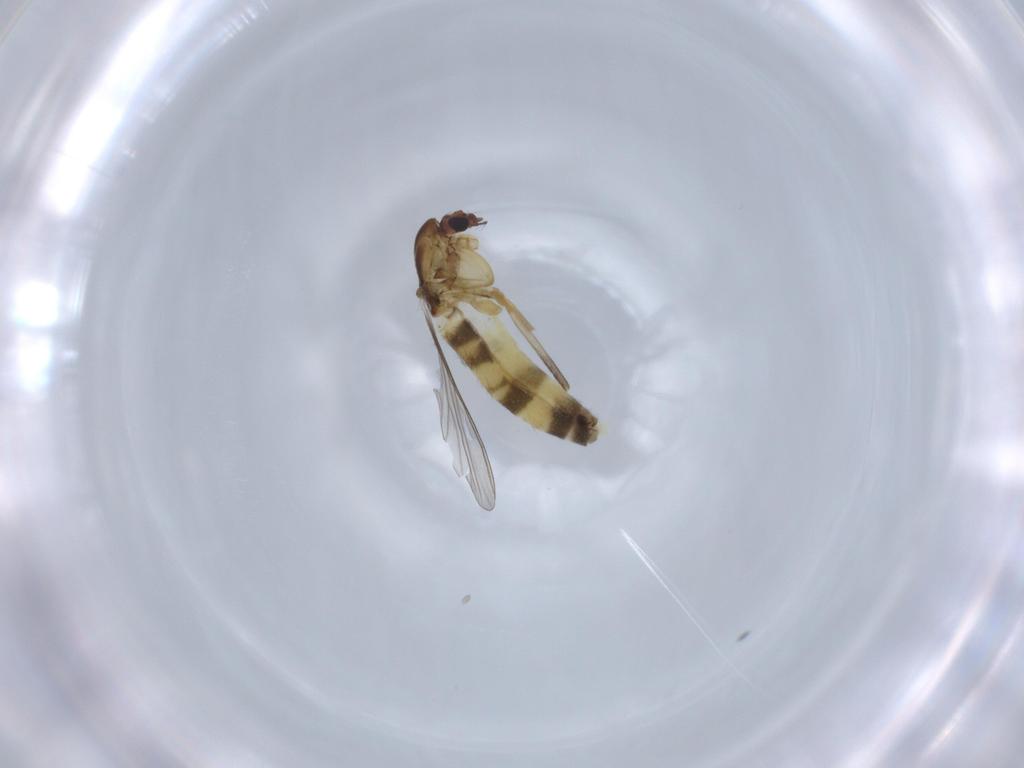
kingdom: Animalia
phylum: Arthropoda
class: Insecta
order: Diptera
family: Chironomidae
